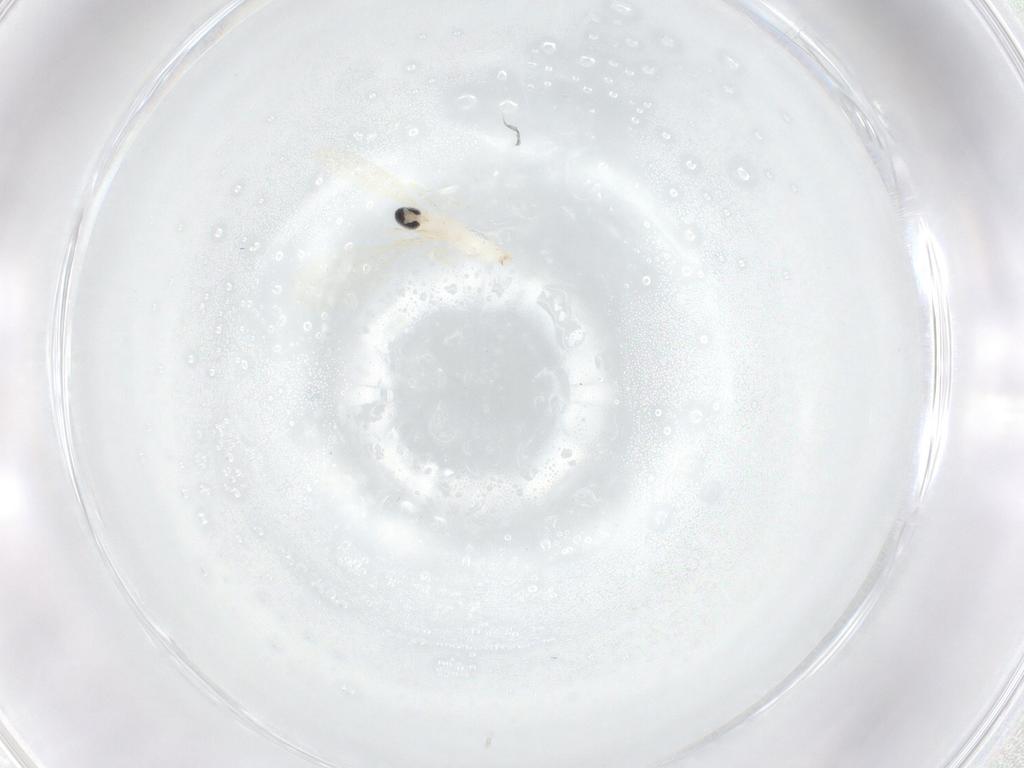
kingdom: Animalia
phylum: Arthropoda
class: Insecta
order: Diptera
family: Cecidomyiidae
